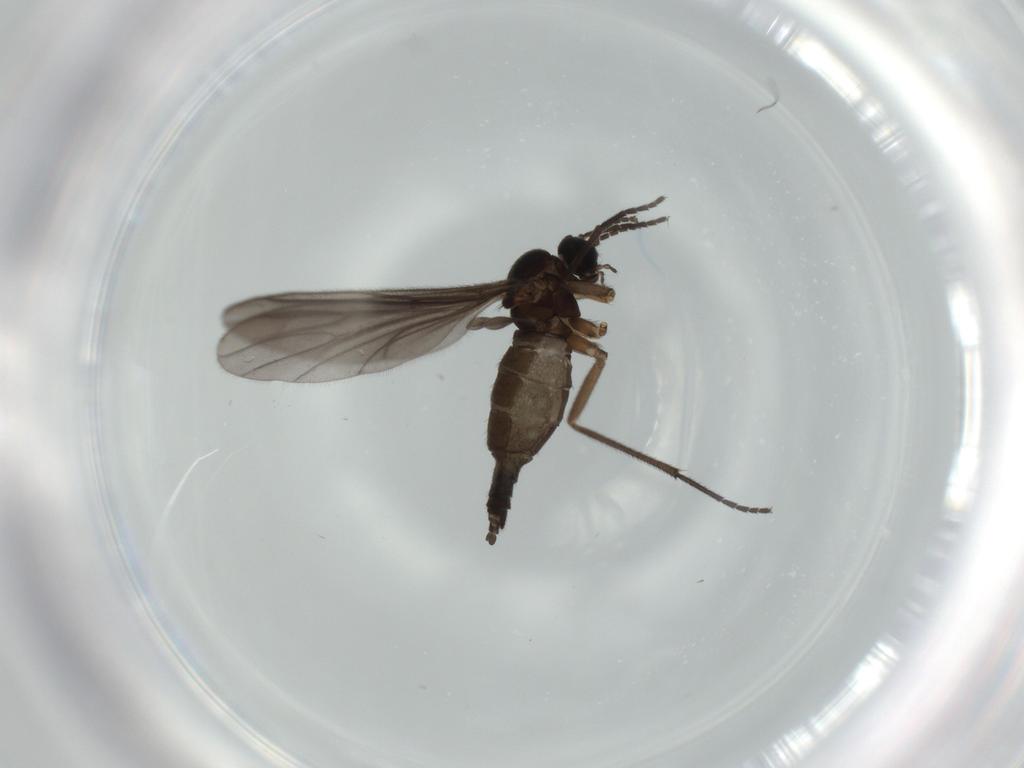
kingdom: Animalia
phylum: Arthropoda
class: Insecta
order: Diptera
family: Sciaridae
